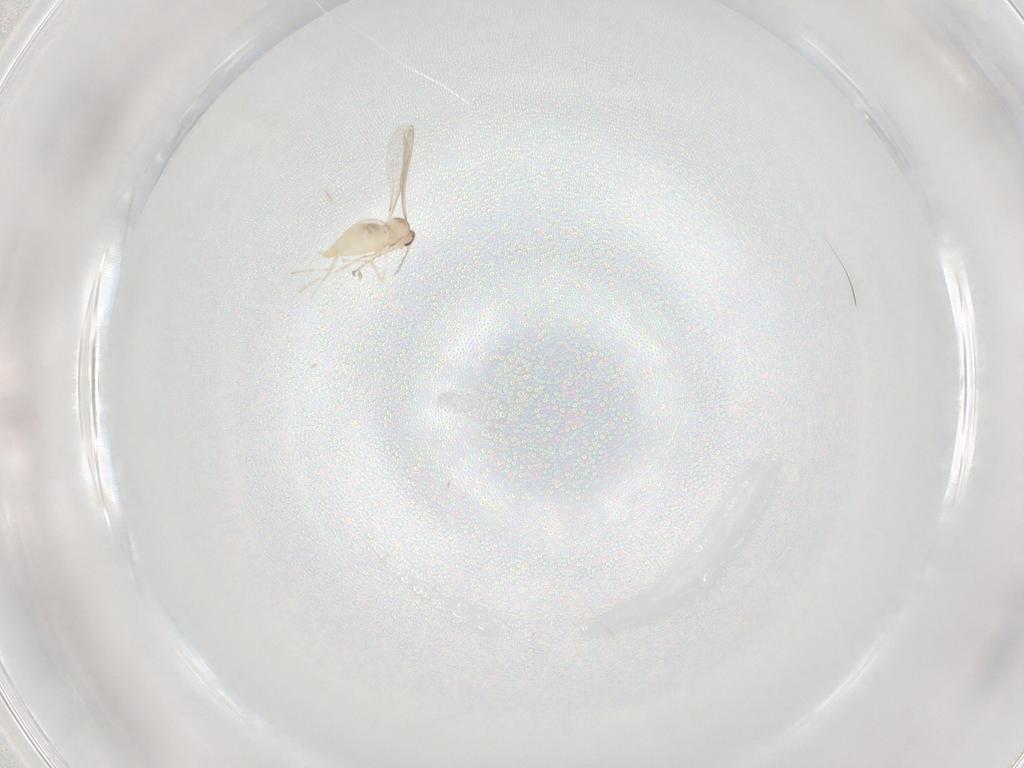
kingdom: Animalia
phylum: Arthropoda
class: Insecta
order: Diptera
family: Cecidomyiidae
